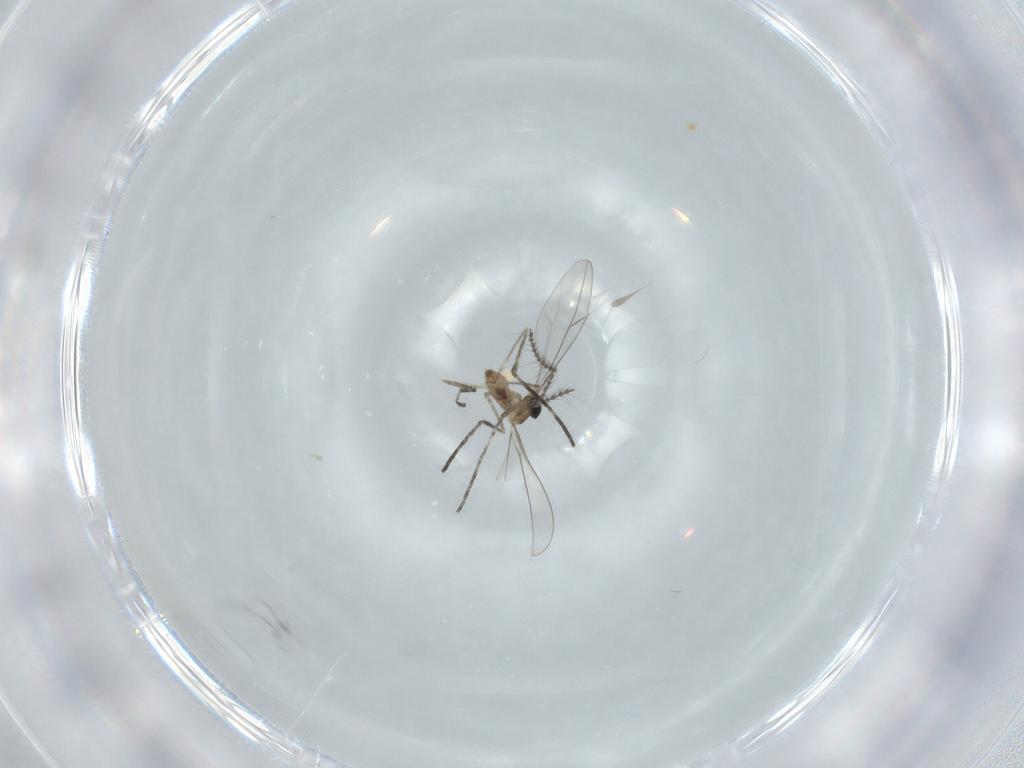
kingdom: Animalia
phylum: Arthropoda
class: Insecta
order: Diptera
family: Cecidomyiidae
